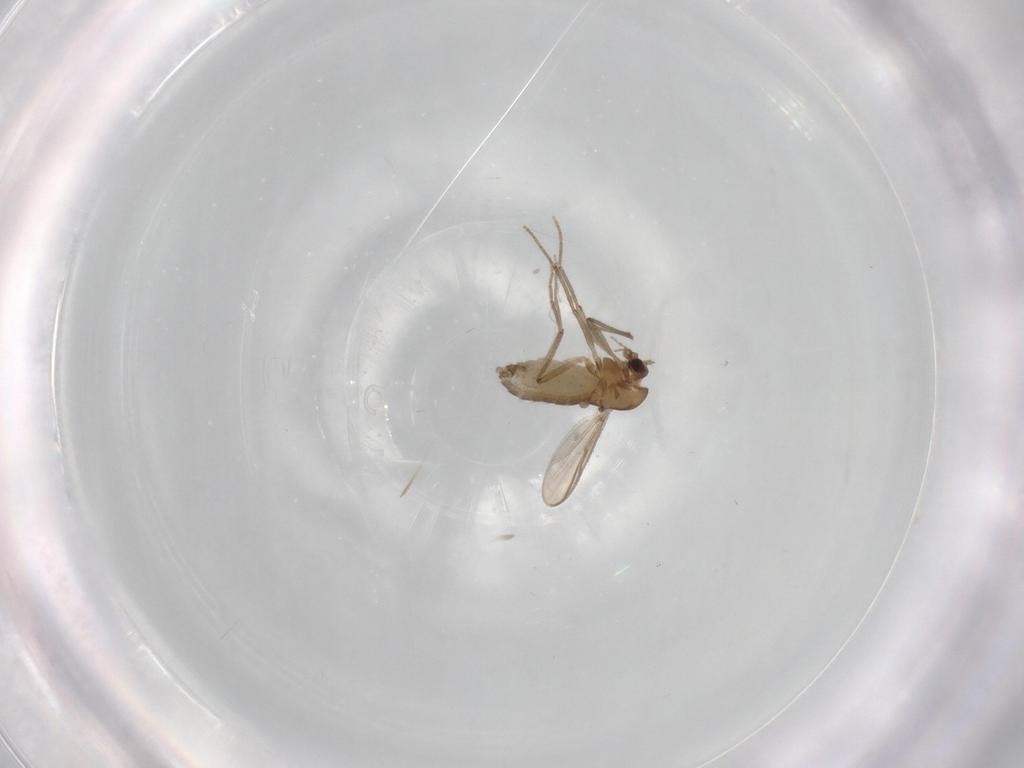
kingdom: Animalia
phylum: Arthropoda
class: Insecta
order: Diptera
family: Chironomidae
